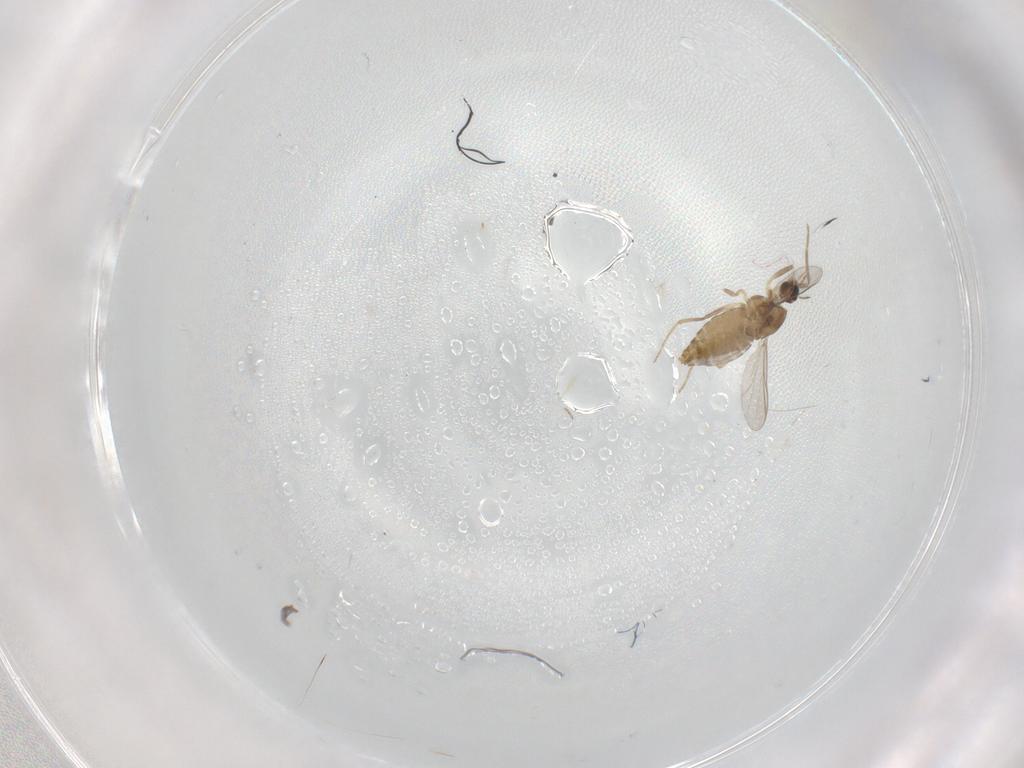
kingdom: Animalia
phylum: Arthropoda
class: Insecta
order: Diptera
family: Chironomidae
